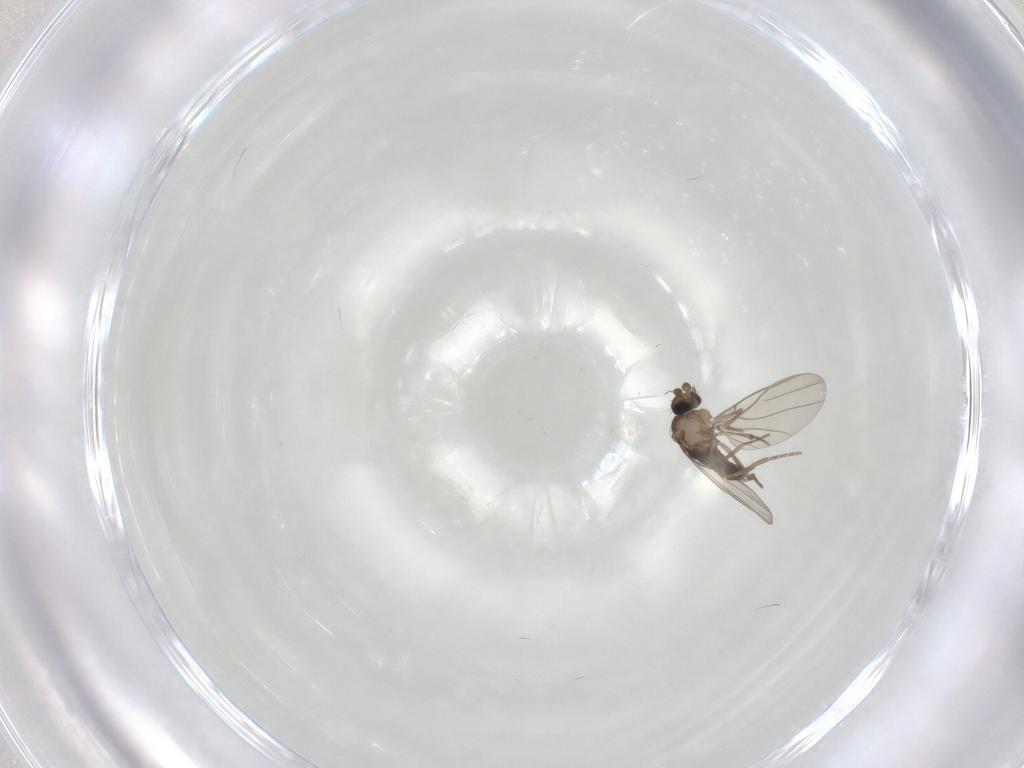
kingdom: Animalia
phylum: Arthropoda
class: Insecta
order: Diptera
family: Phoridae
